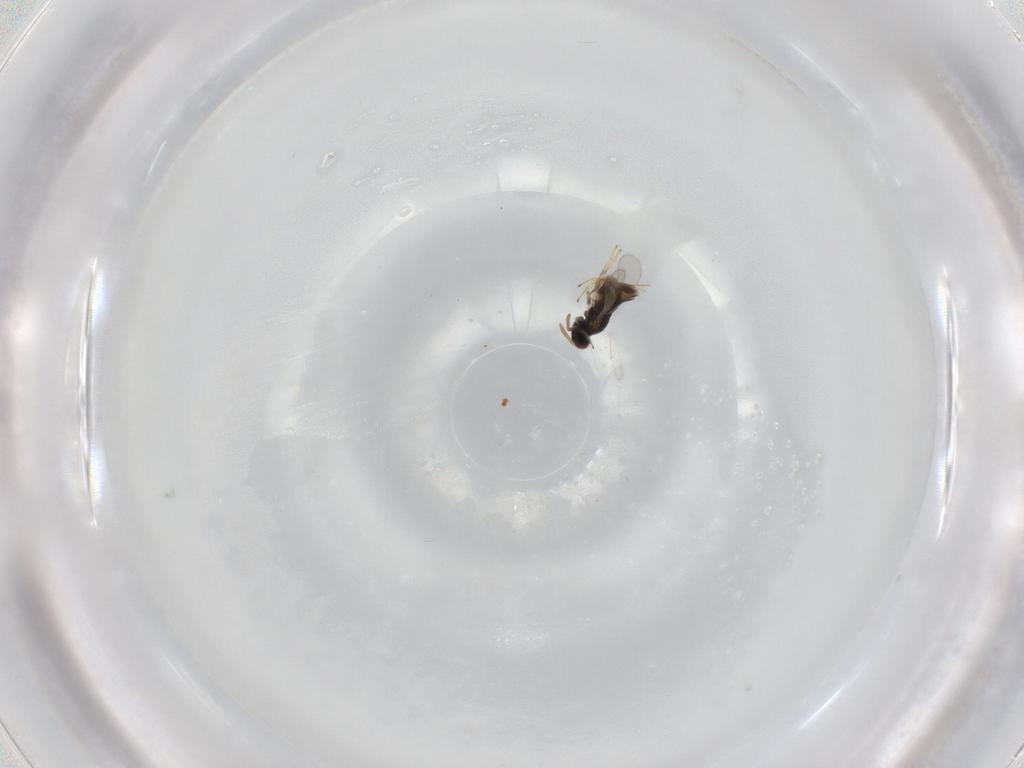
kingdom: Animalia
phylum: Arthropoda
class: Insecta
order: Hymenoptera
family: Aphelinidae
